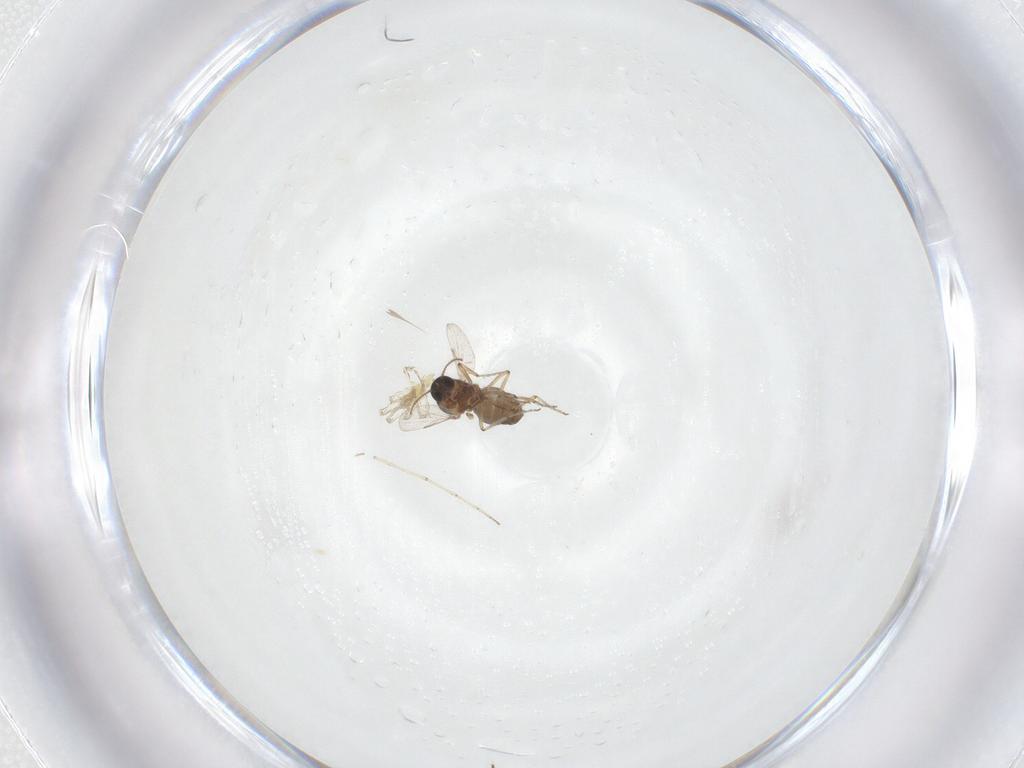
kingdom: Animalia
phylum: Arthropoda
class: Insecta
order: Diptera
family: Ceratopogonidae
